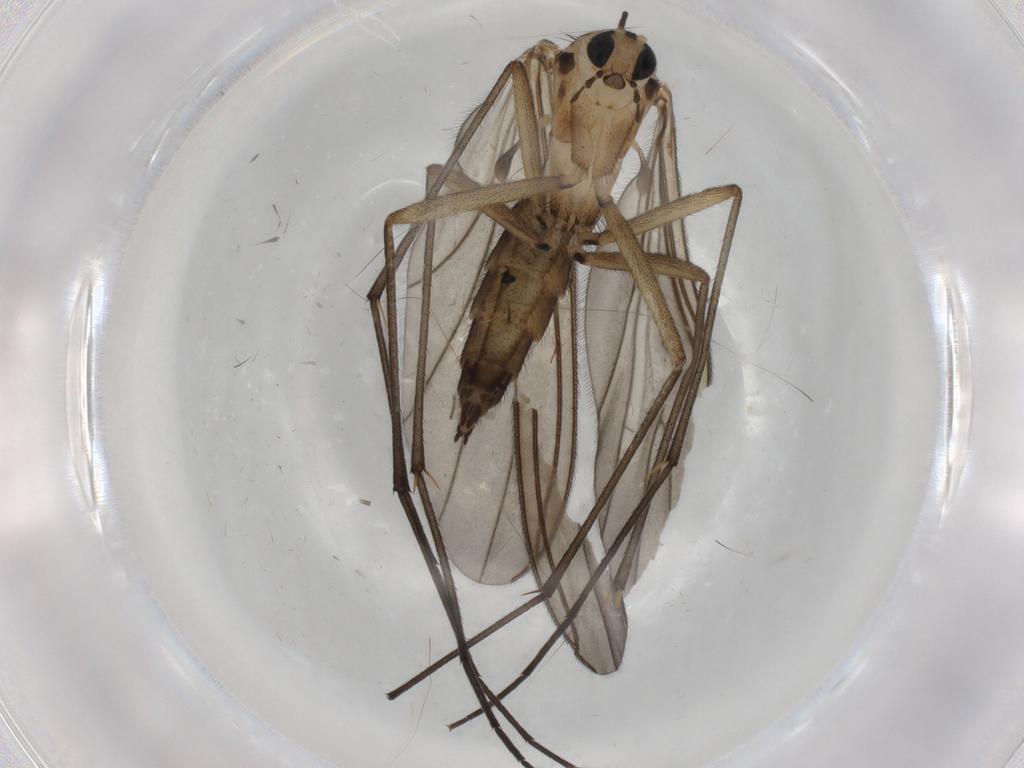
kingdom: Animalia
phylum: Arthropoda
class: Insecta
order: Diptera
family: Sciaridae
